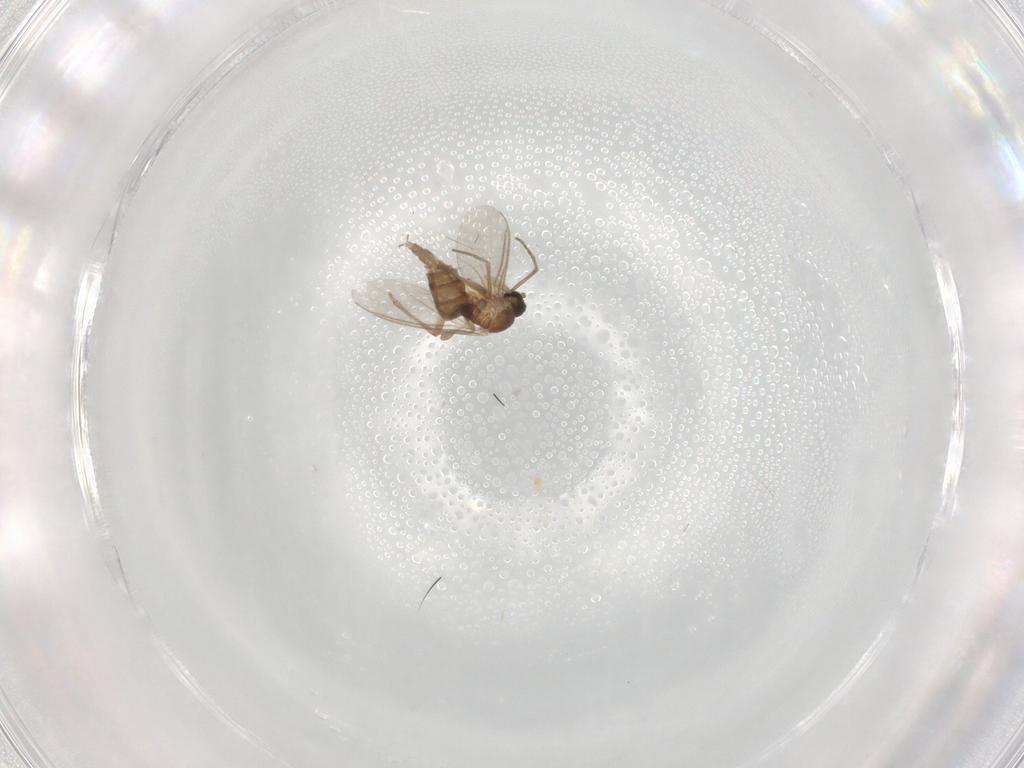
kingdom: Animalia
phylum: Arthropoda
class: Insecta
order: Diptera
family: Sciaridae
